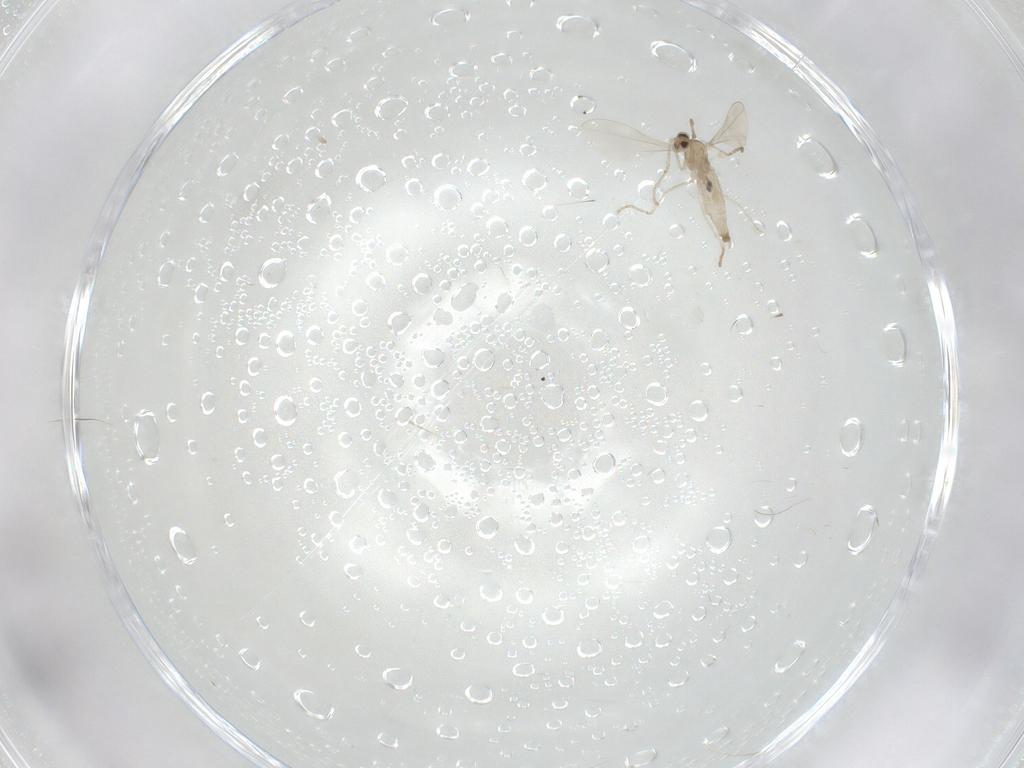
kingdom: Animalia
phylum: Arthropoda
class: Insecta
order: Diptera
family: Cecidomyiidae
